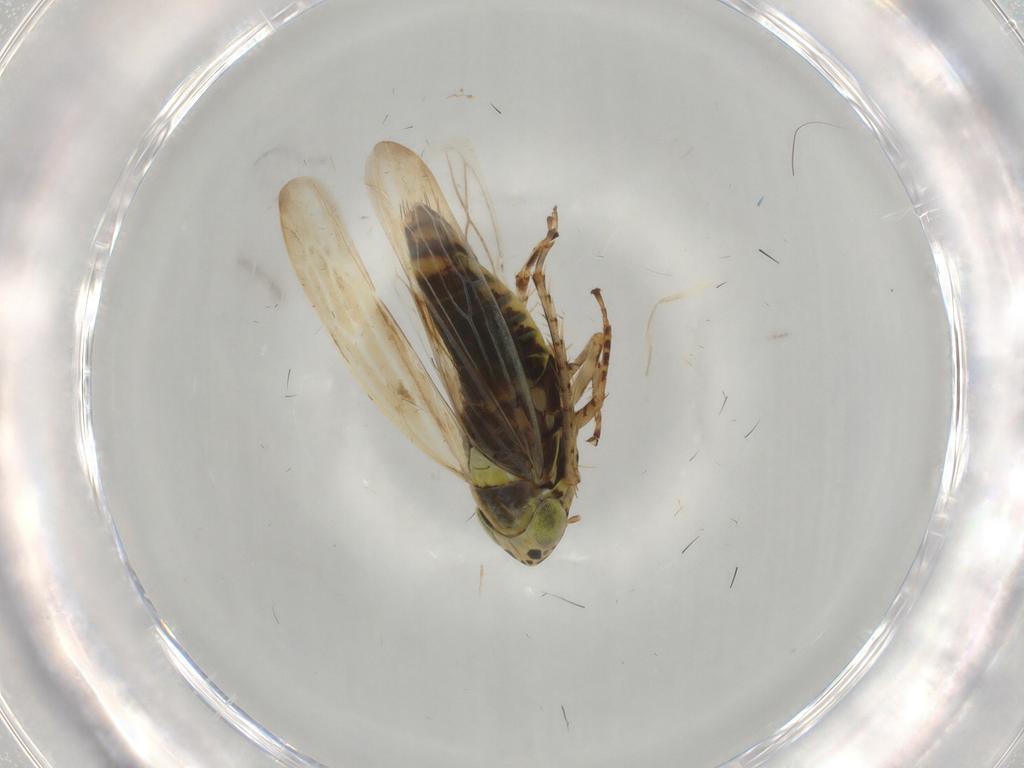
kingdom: Animalia
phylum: Arthropoda
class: Insecta
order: Hemiptera
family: Cicadellidae
